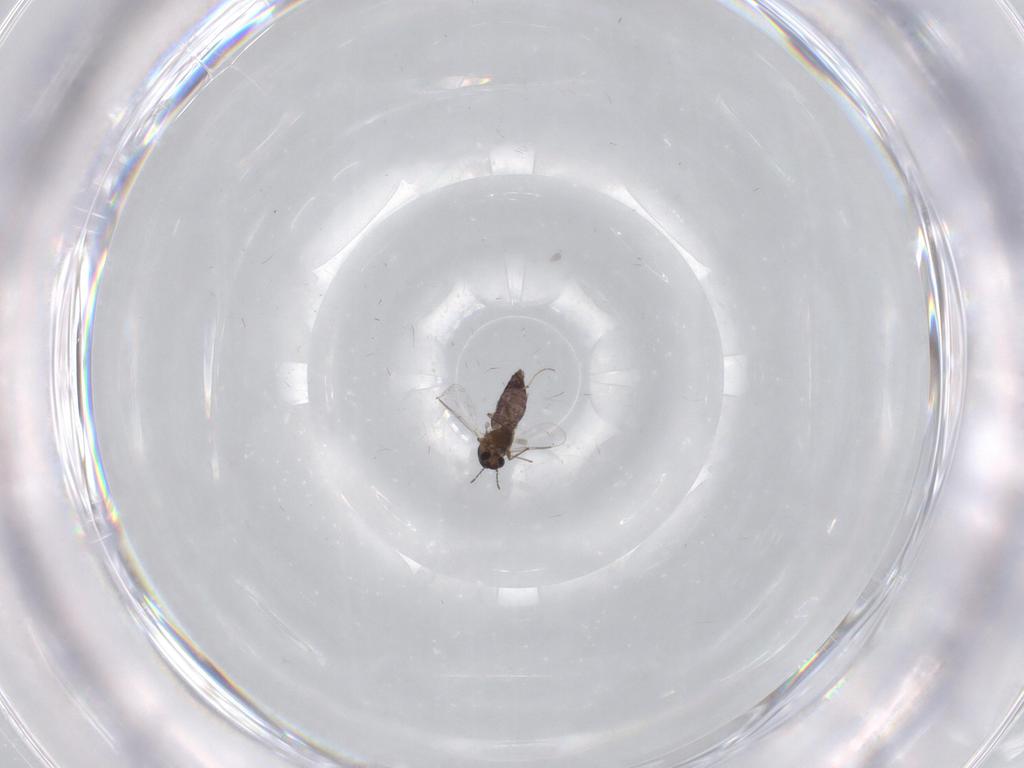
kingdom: Animalia
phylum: Arthropoda
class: Insecta
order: Diptera
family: Chironomidae
